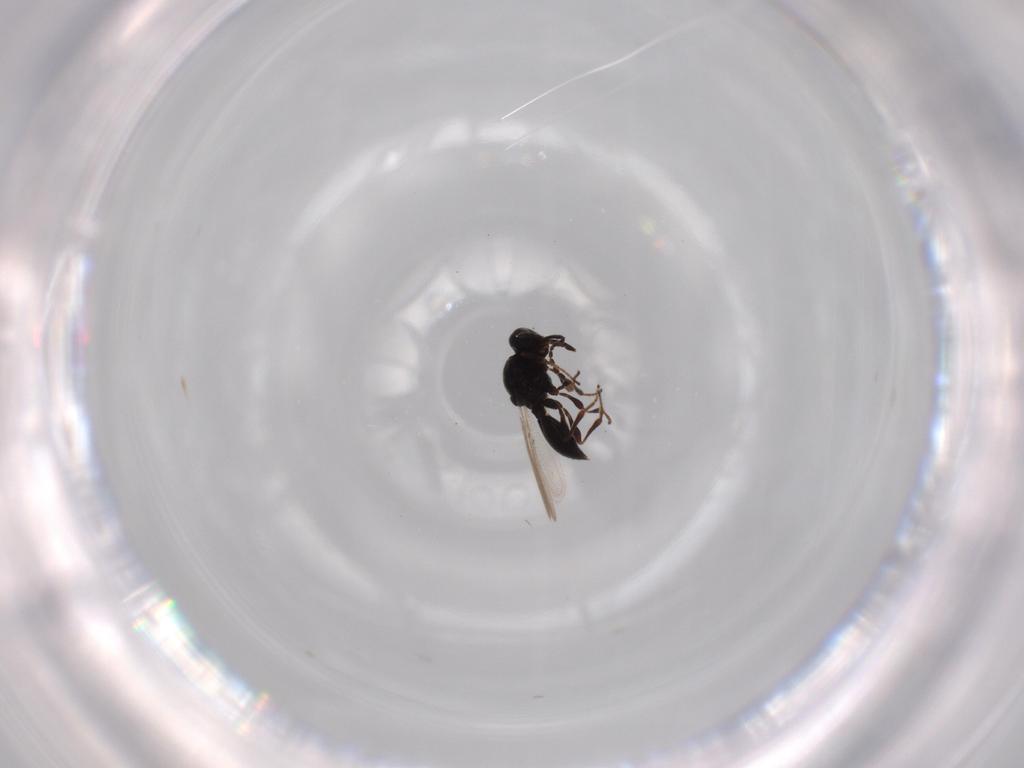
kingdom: Animalia
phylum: Arthropoda
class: Insecta
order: Hymenoptera
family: Platygastridae
